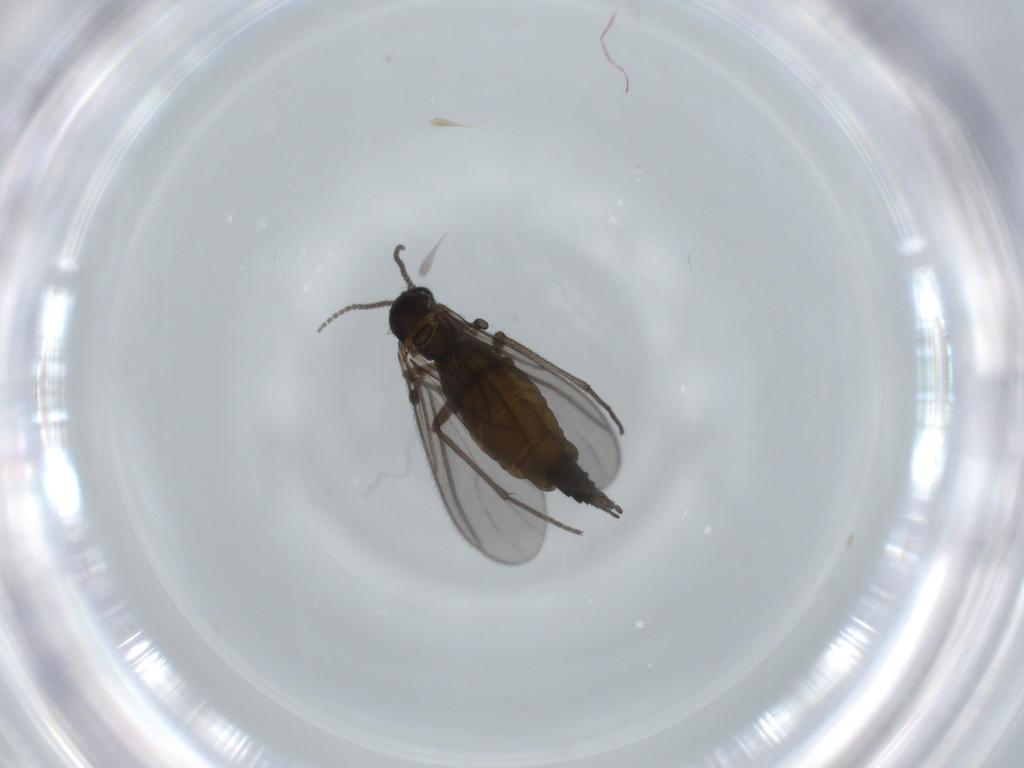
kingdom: Animalia
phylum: Arthropoda
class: Insecta
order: Diptera
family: Sciaridae
